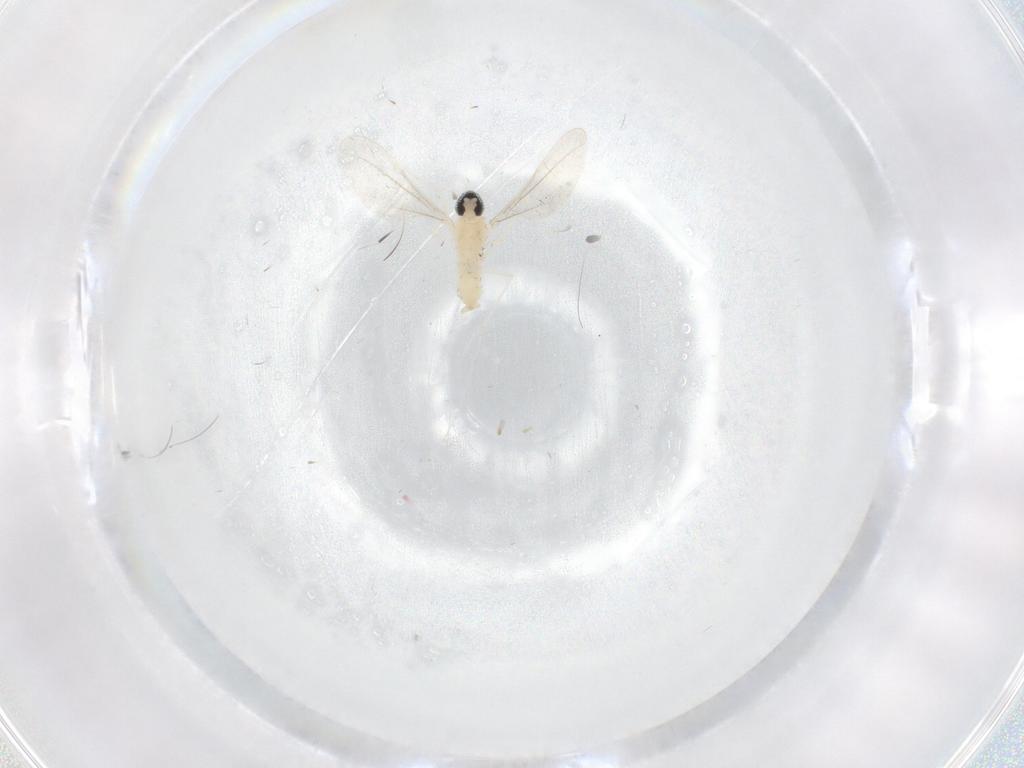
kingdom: Animalia
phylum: Arthropoda
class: Insecta
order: Diptera
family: Cecidomyiidae
